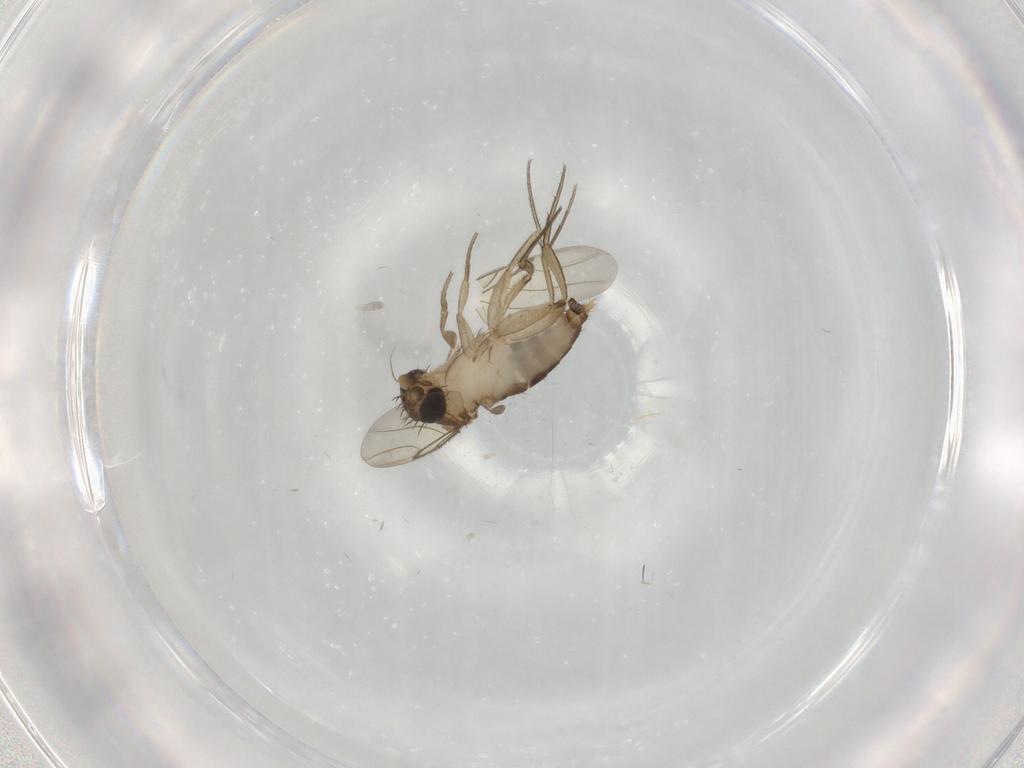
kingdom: Animalia
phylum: Arthropoda
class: Insecta
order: Diptera
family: Phoridae
